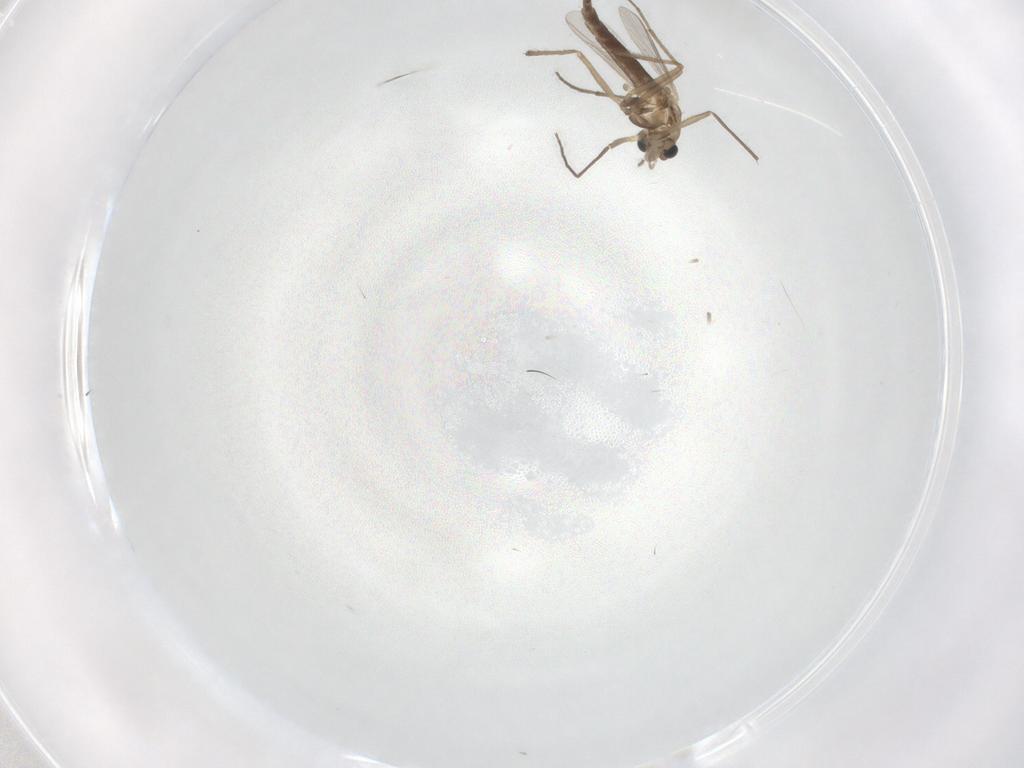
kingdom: Animalia
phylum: Arthropoda
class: Insecta
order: Diptera
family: Chironomidae
